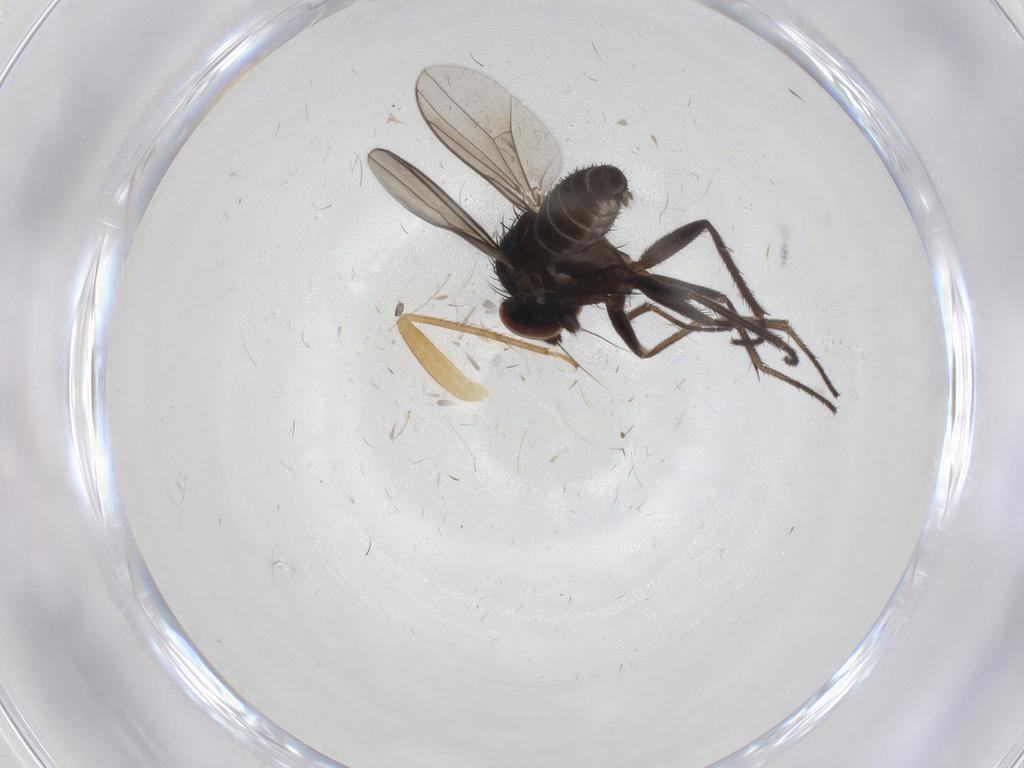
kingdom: Animalia
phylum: Arthropoda
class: Insecta
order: Diptera
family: Dolichopodidae
